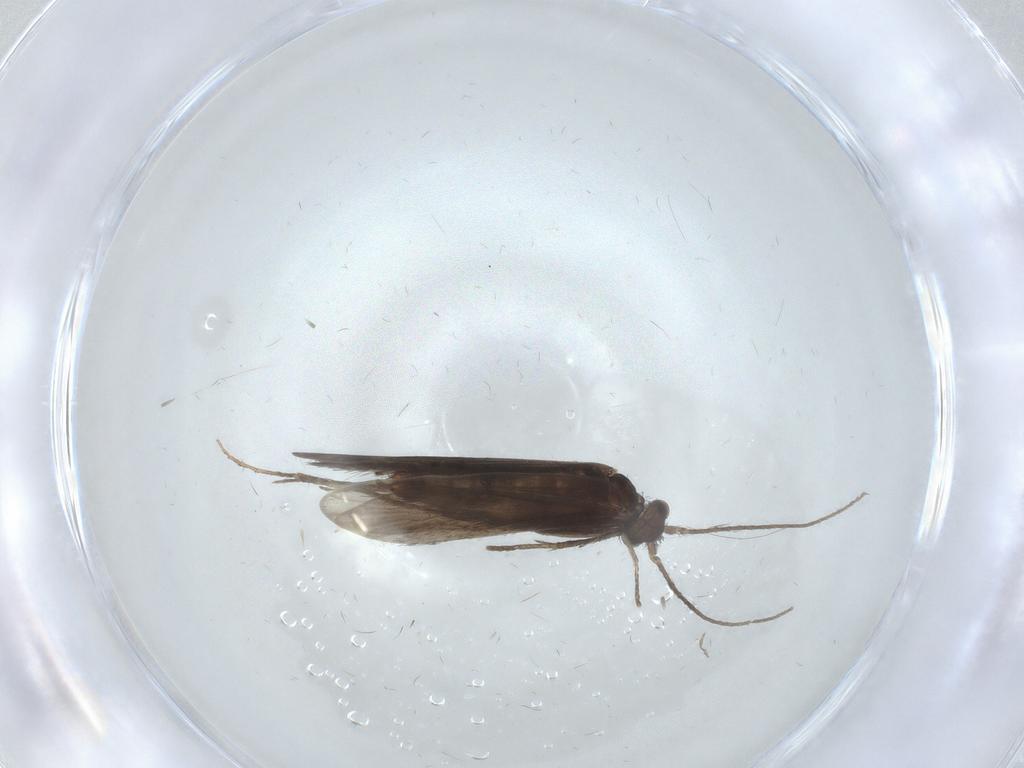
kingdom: Animalia
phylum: Arthropoda
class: Insecta
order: Trichoptera
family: Xiphocentronidae
